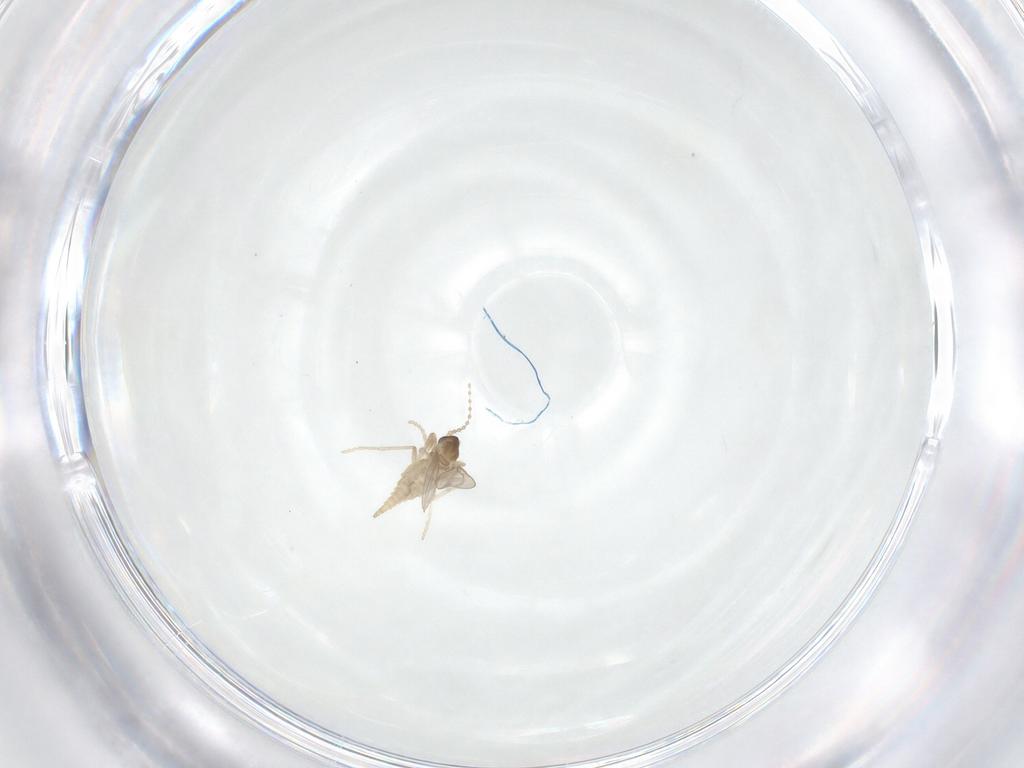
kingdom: Animalia
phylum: Arthropoda
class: Insecta
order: Diptera
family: Cecidomyiidae
